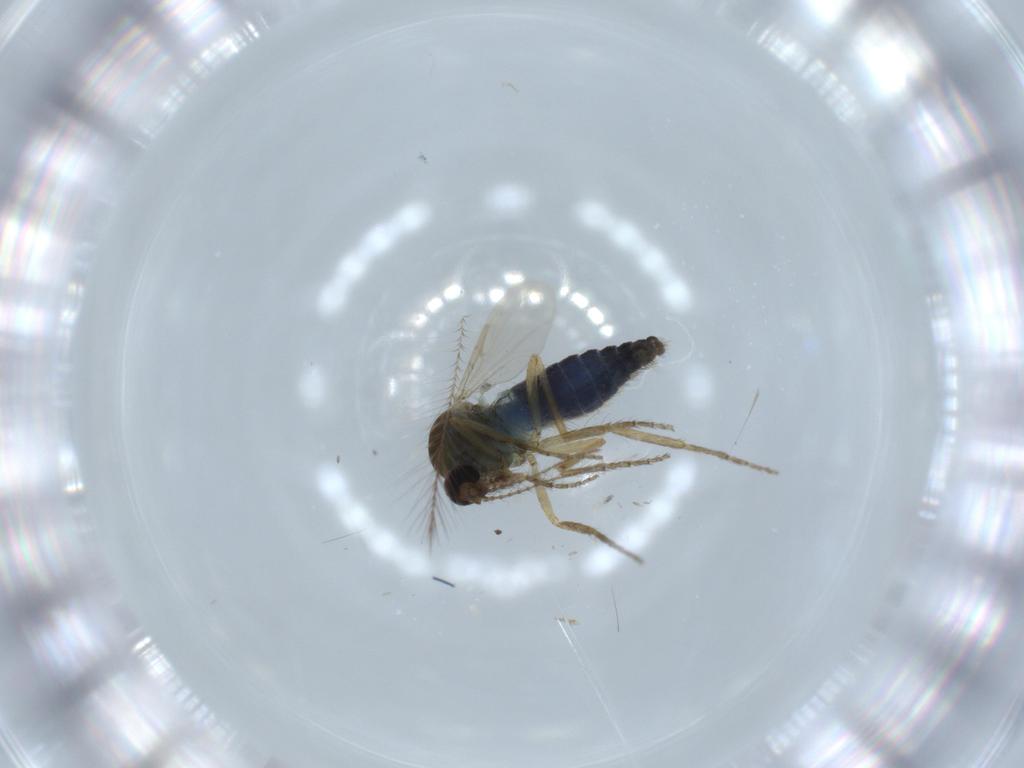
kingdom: Animalia
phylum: Arthropoda
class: Insecta
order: Diptera
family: Ceratopogonidae
